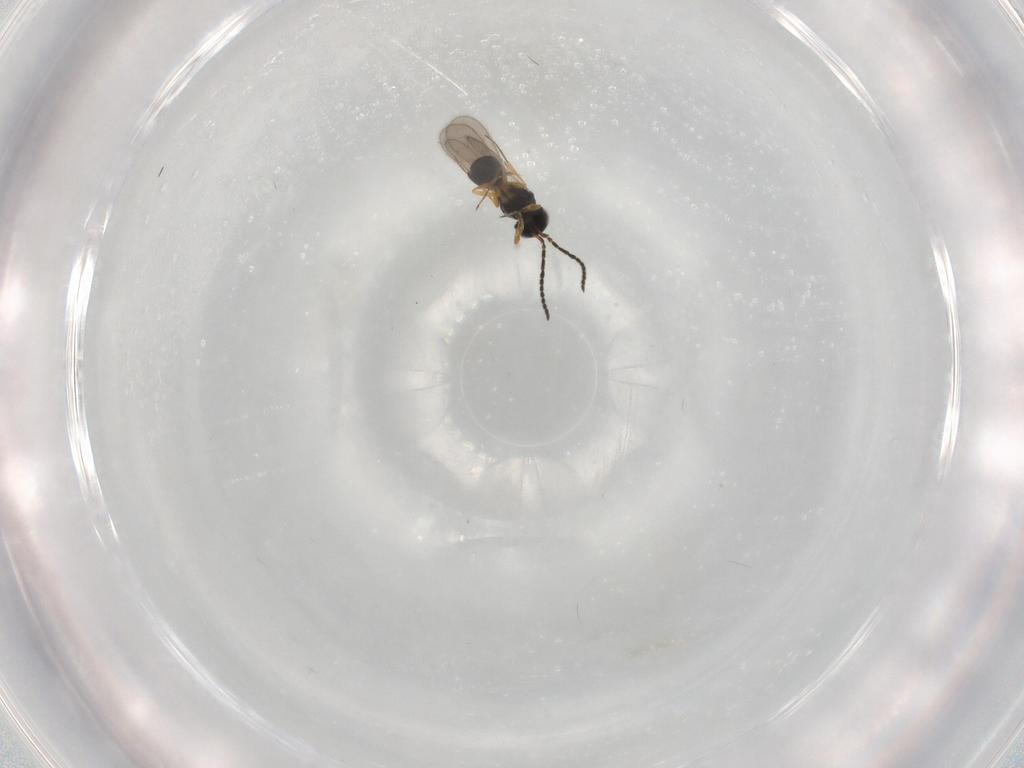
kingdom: Animalia
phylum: Arthropoda
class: Insecta
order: Hymenoptera
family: Scelionidae
